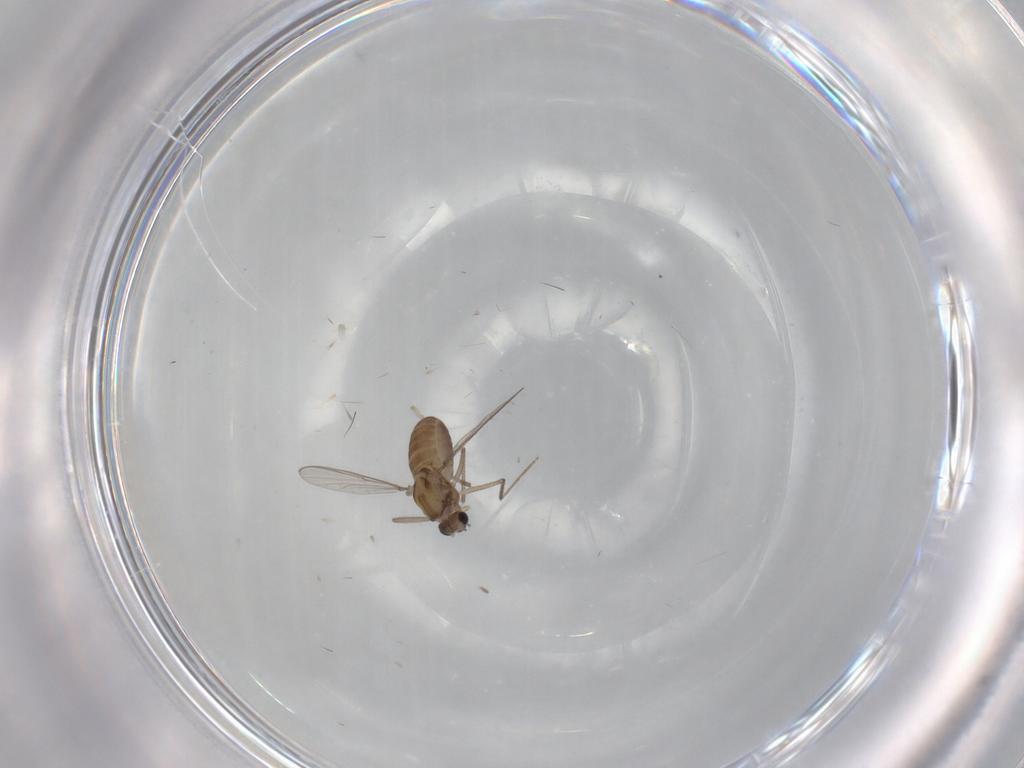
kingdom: Animalia
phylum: Arthropoda
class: Insecta
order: Diptera
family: Chironomidae
